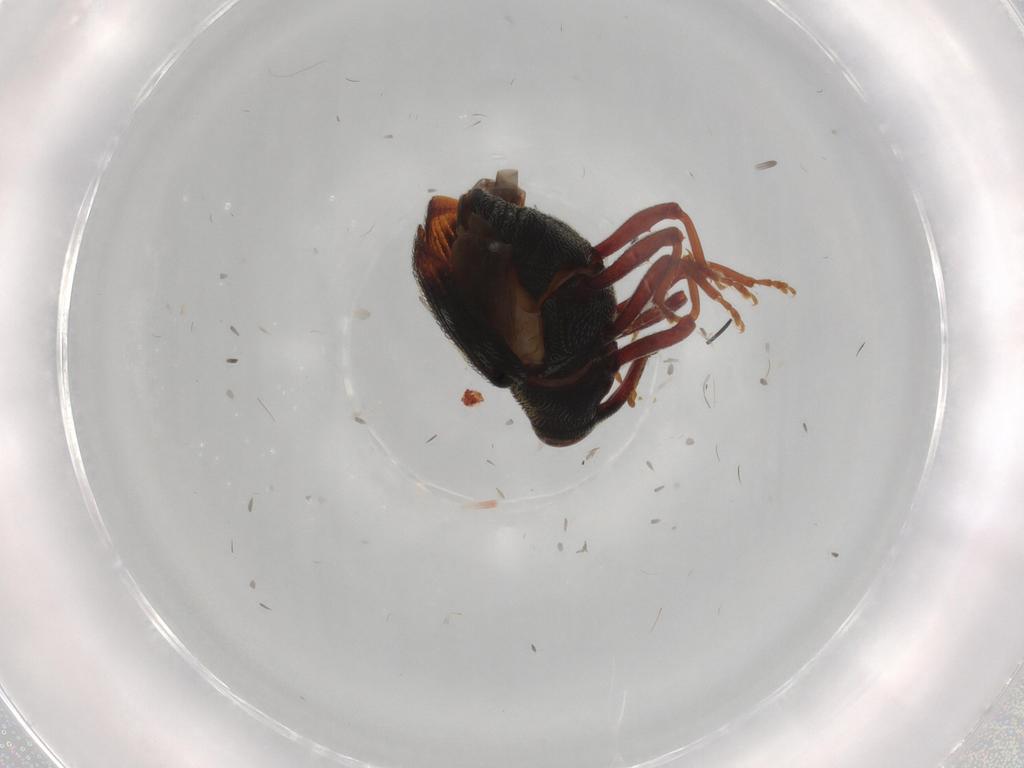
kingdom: Animalia
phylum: Arthropoda
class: Insecta
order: Coleoptera
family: Curculionidae
